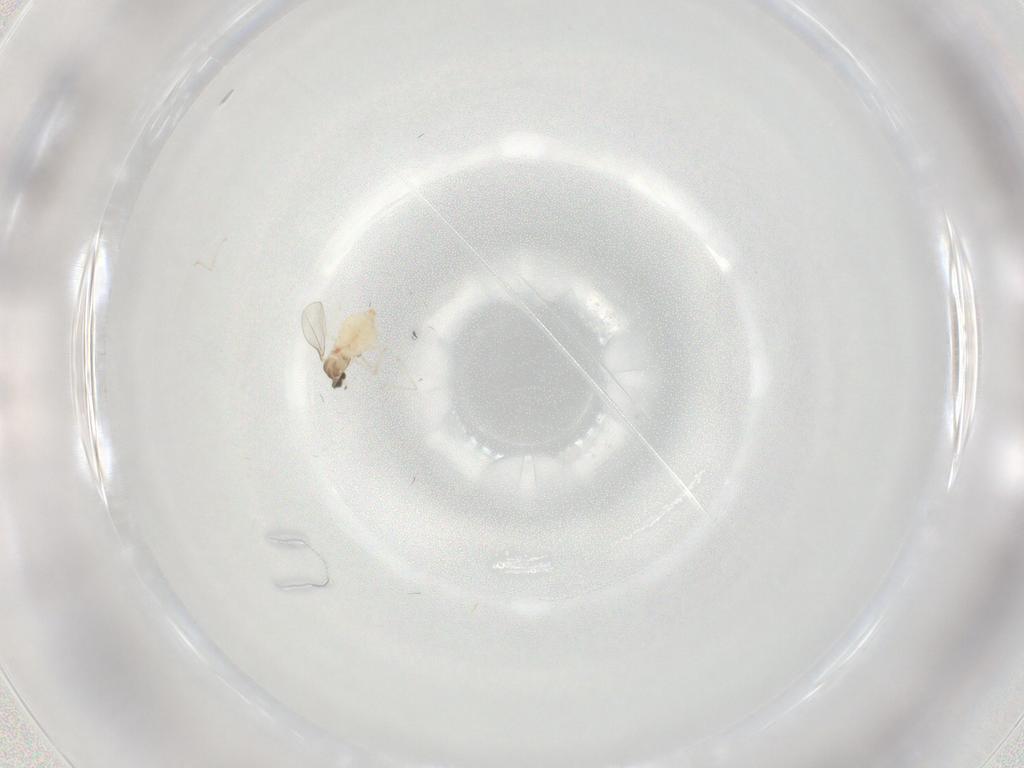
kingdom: Animalia
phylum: Arthropoda
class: Insecta
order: Diptera
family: Cecidomyiidae
